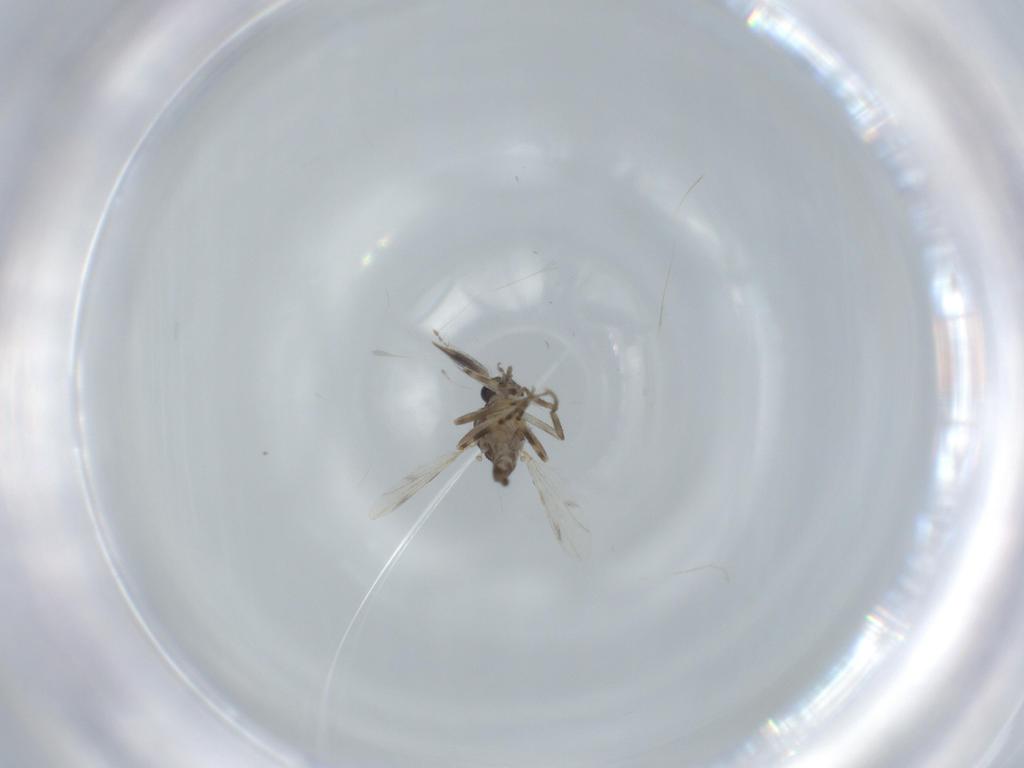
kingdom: Animalia
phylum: Arthropoda
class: Insecta
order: Diptera
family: Ceratopogonidae
